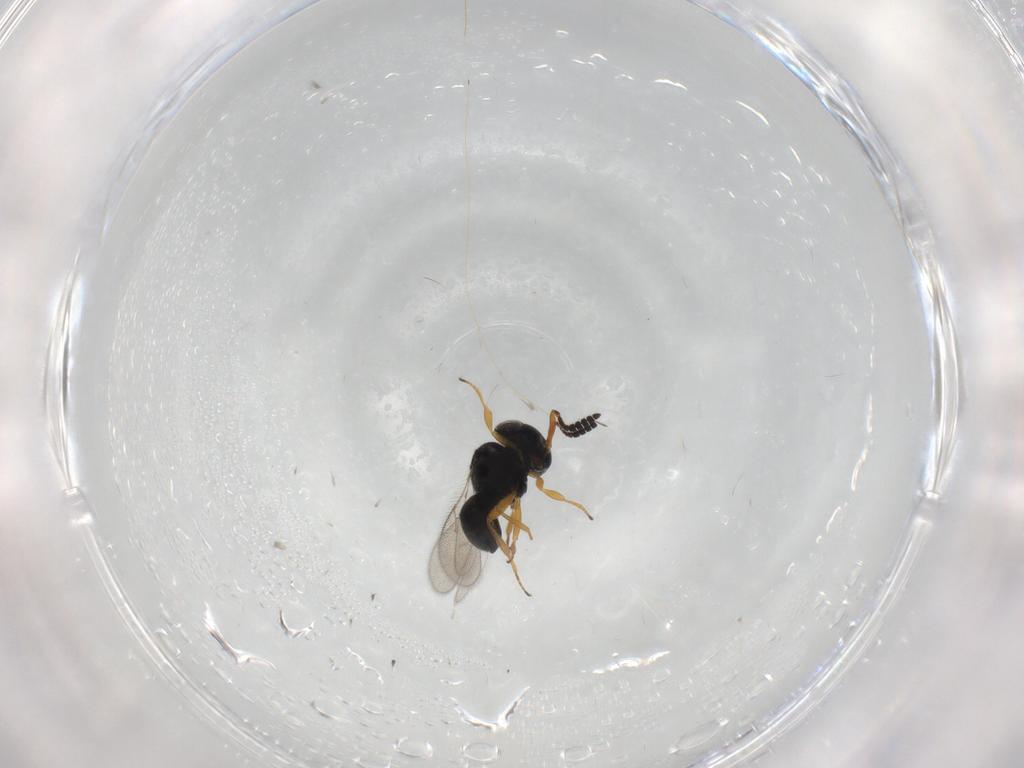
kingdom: Animalia
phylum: Arthropoda
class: Insecta
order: Hymenoptera
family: Scelionidae
